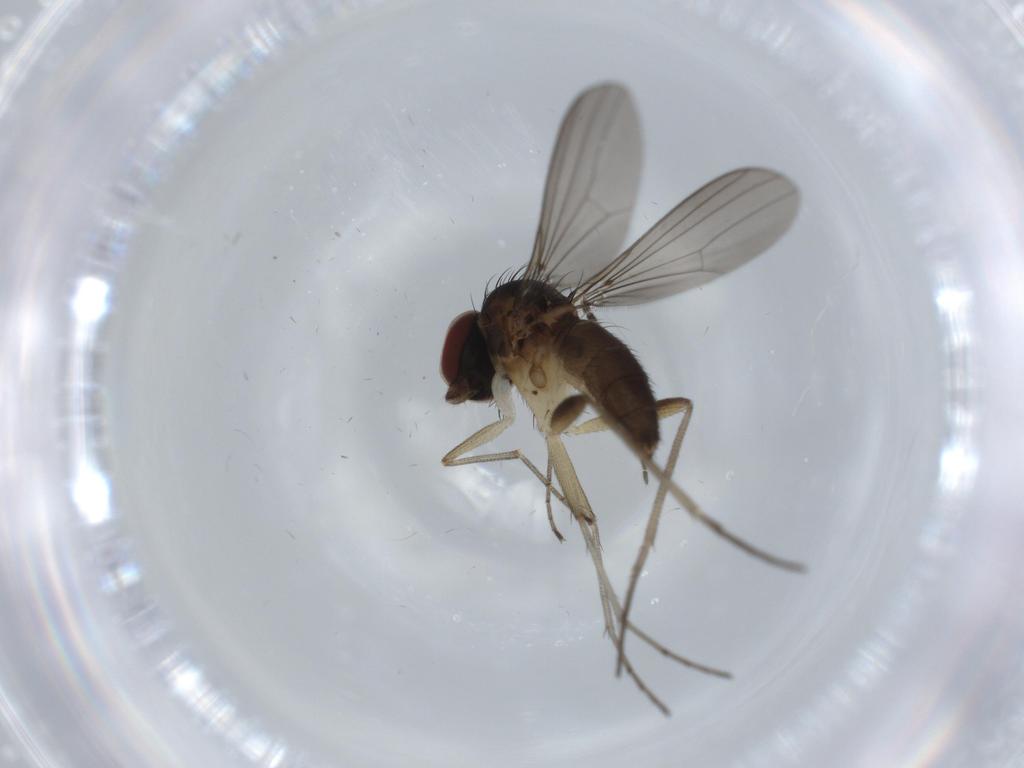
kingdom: Animalia
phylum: Arthropoda
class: Insecta
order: Diptera
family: Dolichopodidae
